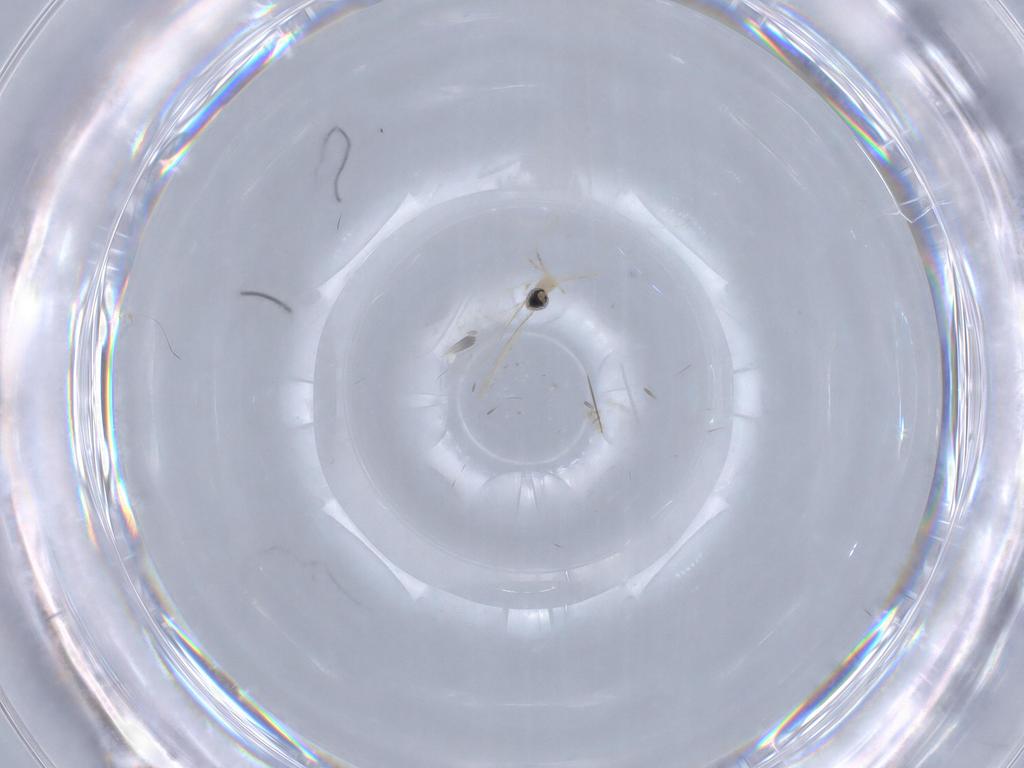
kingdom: Animalia
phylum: Arthropoda
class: Insecta
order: Diptera
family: Cecidomyiidae
